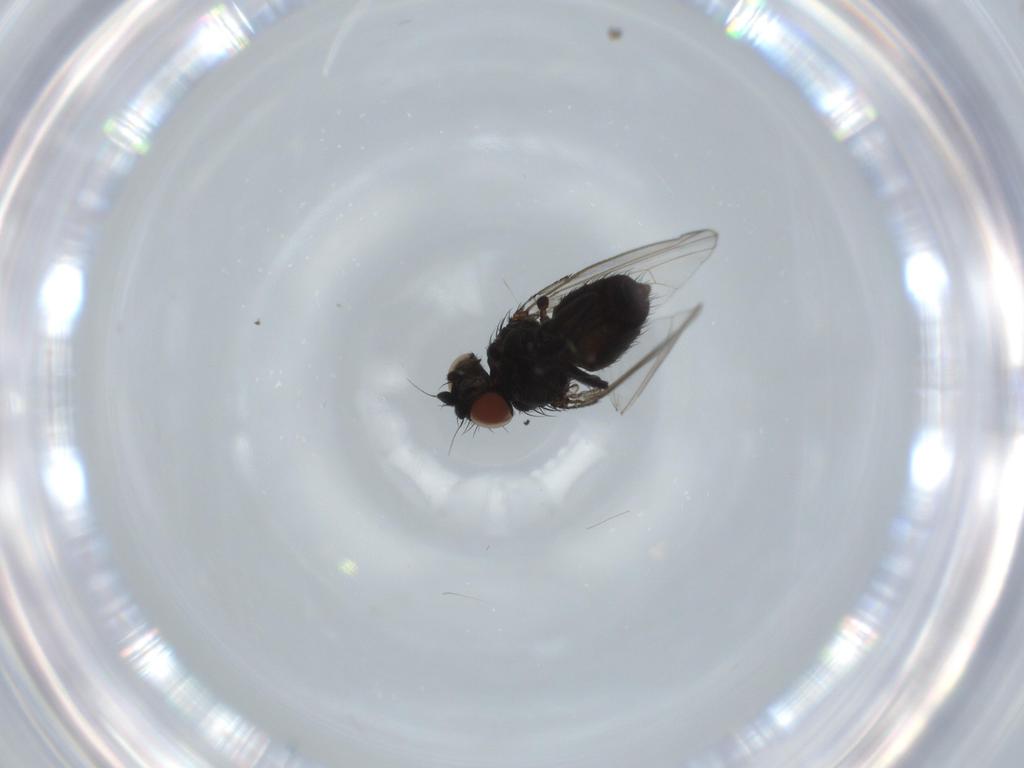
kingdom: Animalia
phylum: Arthropoda
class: Insecta
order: Diptera
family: Milichiidae
